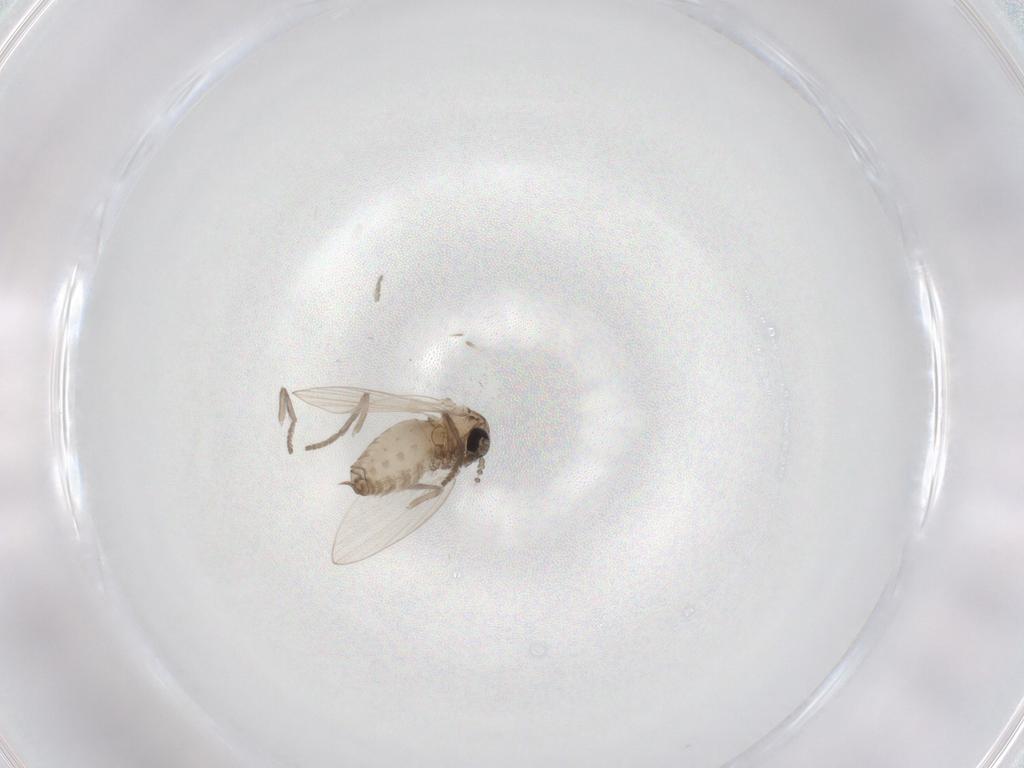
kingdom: Animalia
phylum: Arthropoda
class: Insecta
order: Diptera
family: Psychodidae
